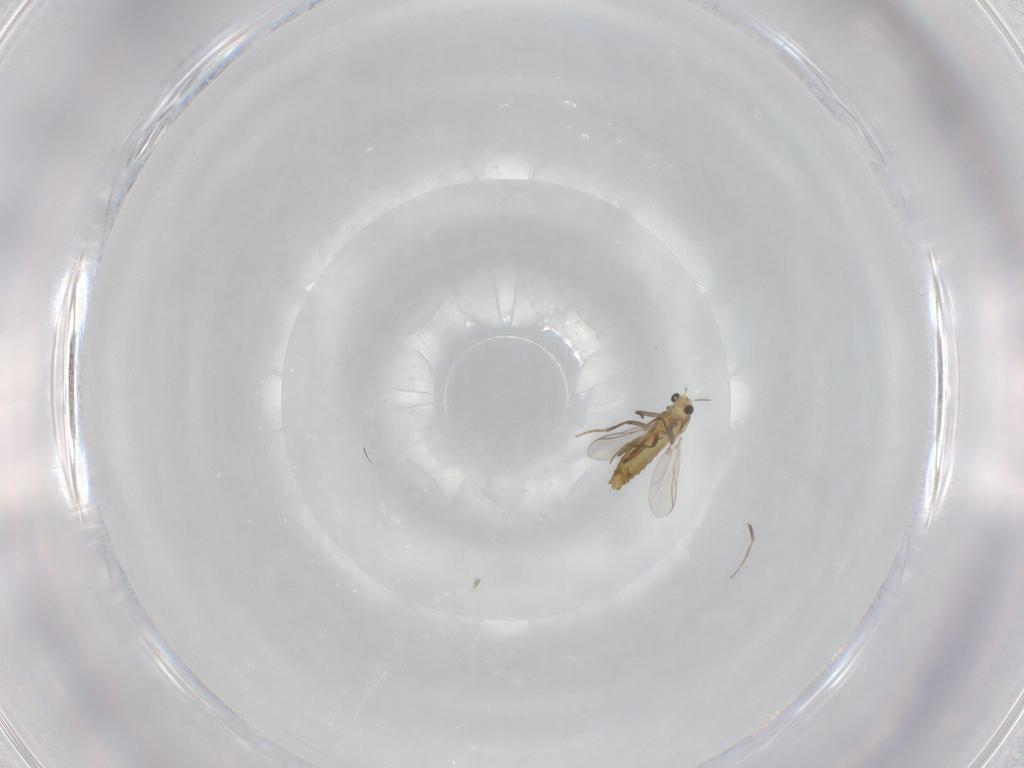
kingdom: Animalia
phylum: Arthropoda
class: Insecta
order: Diptera
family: Chironomidae
